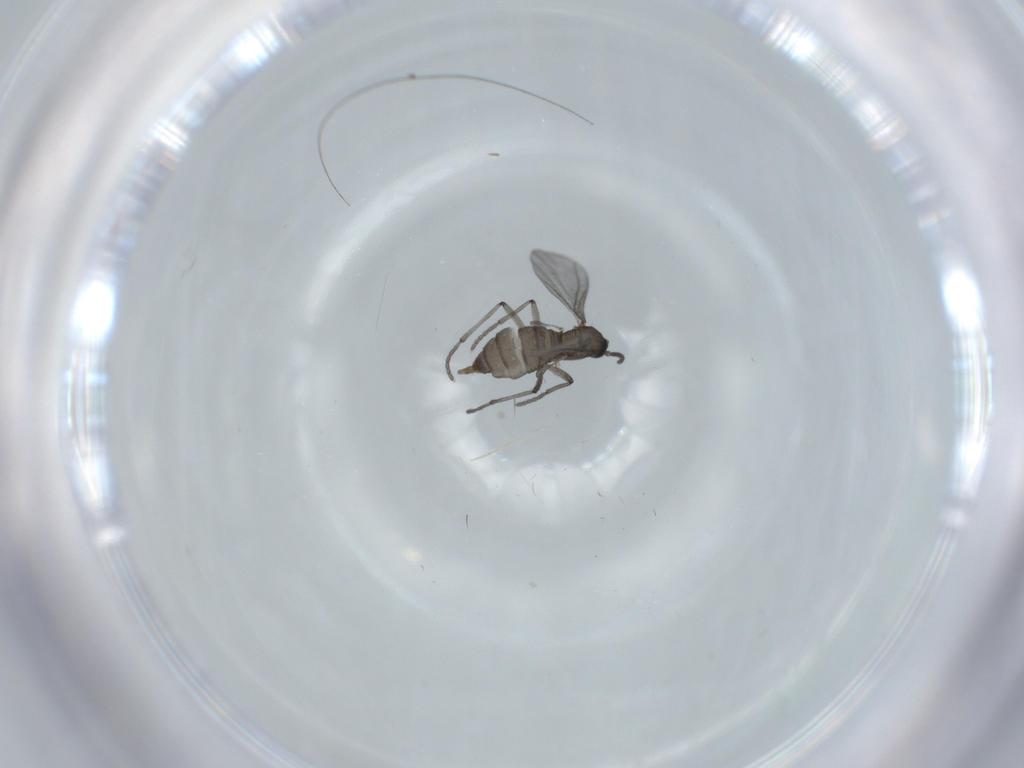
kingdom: Animalia
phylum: Arthropoda
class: Insecta
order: Diptera
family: Sciaridae
